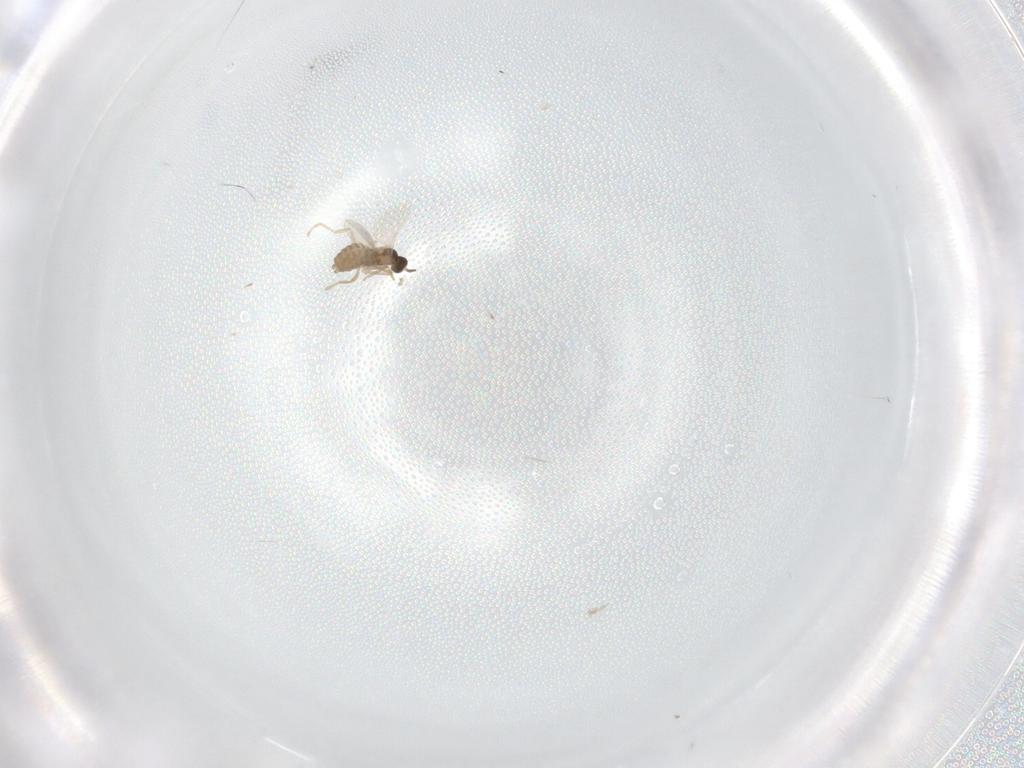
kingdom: Animalia
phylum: Arthropoda
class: Insecta
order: Diptera
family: Cecidomyiidae
